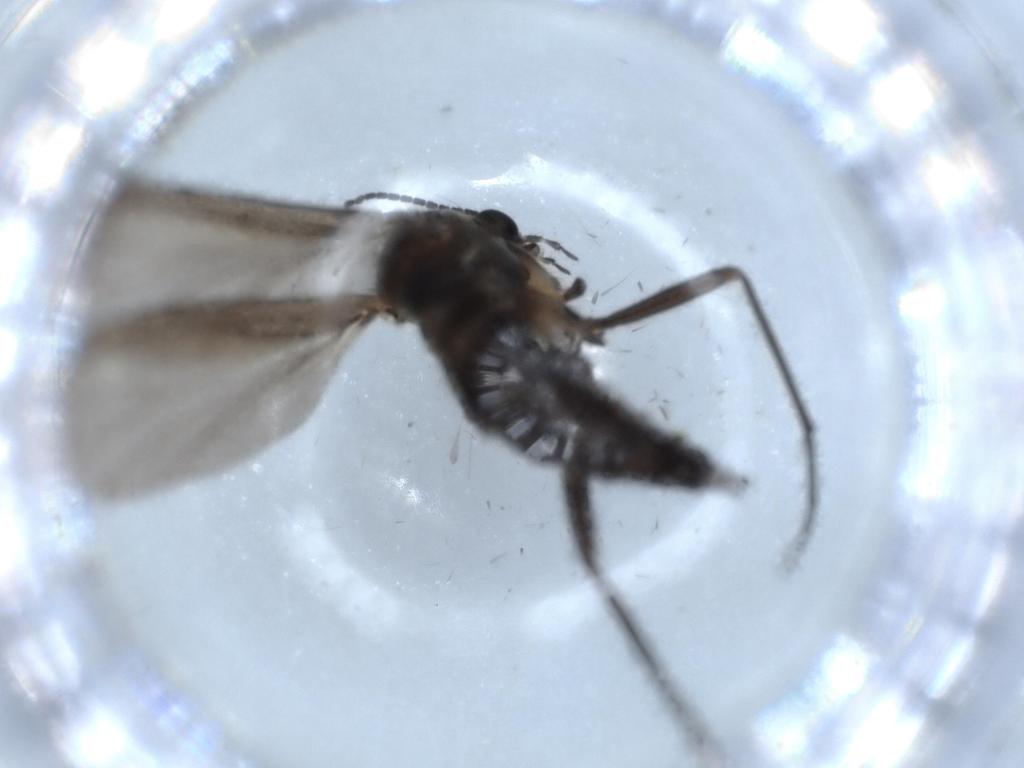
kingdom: Animalia
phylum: Arthropoda
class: Insecta
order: Diptera
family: Sciaridae
